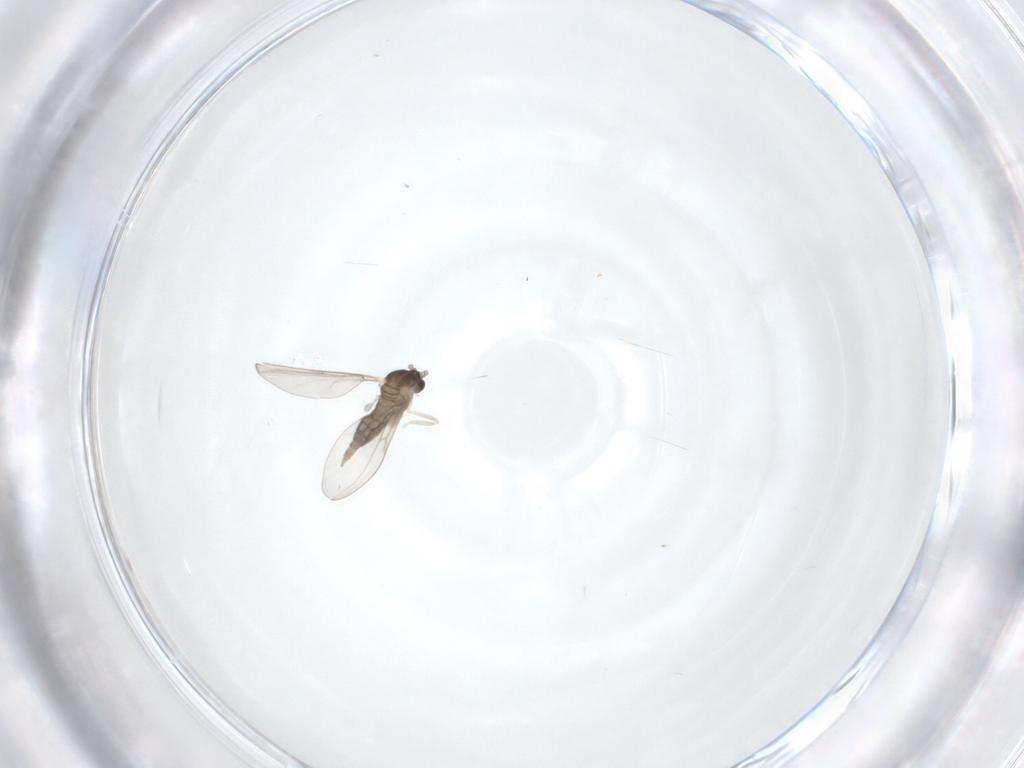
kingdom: Animalia
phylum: Arthropoda
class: Insecta
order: Diptera
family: Cecidomyiidae
